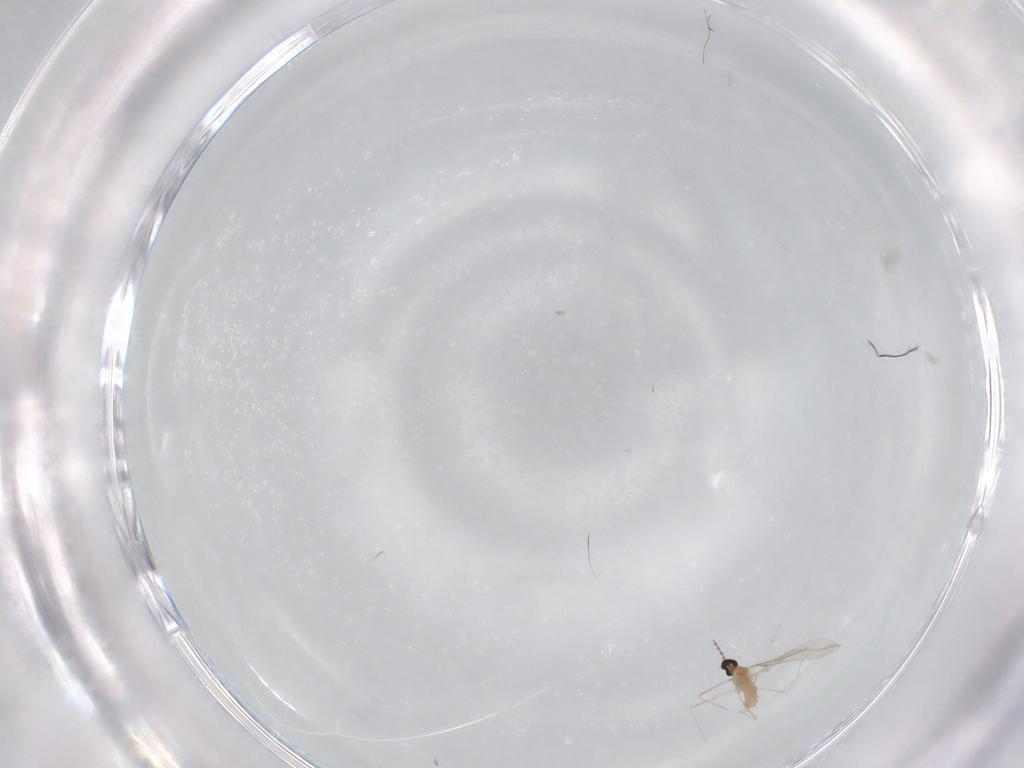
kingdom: Animalia
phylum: Arthropoda
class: Insecta
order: Diptera
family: Cecidomyiidae
